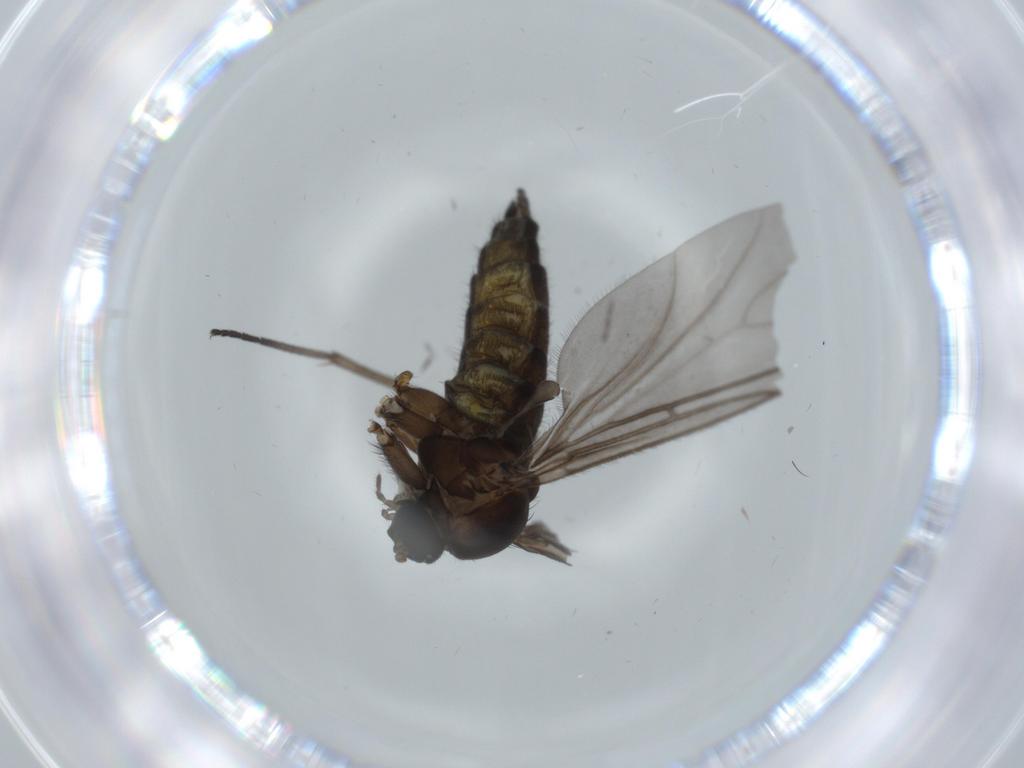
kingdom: Animalia
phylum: Arthropoda
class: Insecta
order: Diptera
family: Sciaridae
